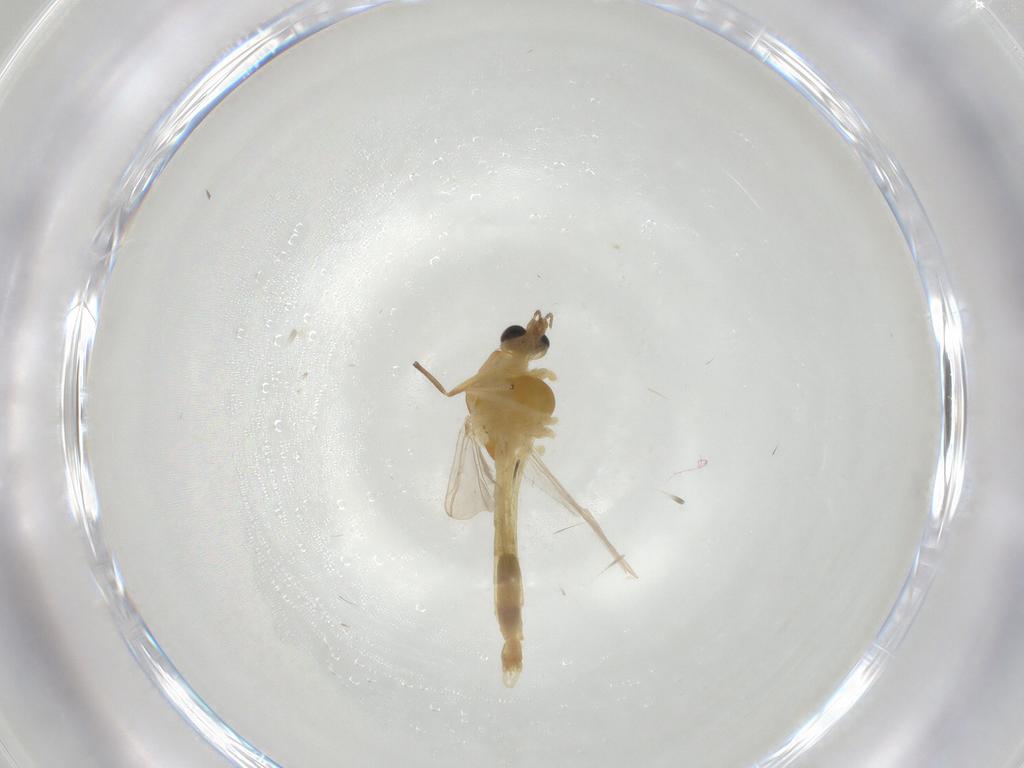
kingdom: Animalia
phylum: Arthropoda
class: Insecta
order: Diptera
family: Chironomidae
